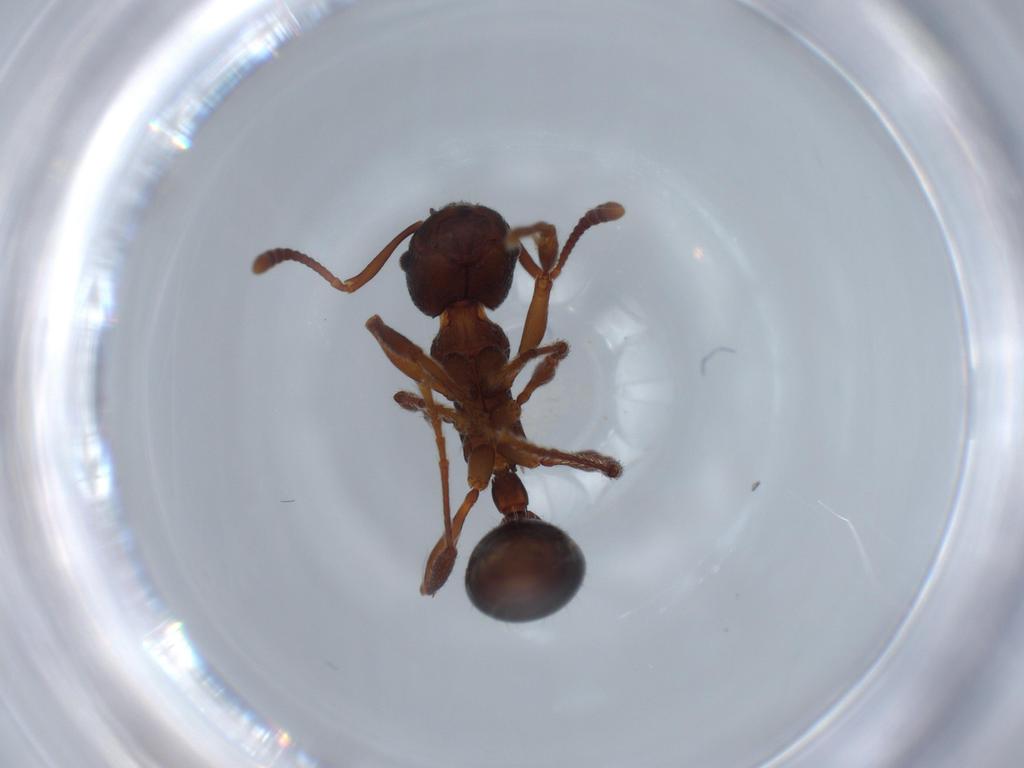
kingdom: Animalia
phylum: Arthropoda
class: Insecta
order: Hymenoptera
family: Formicidae
